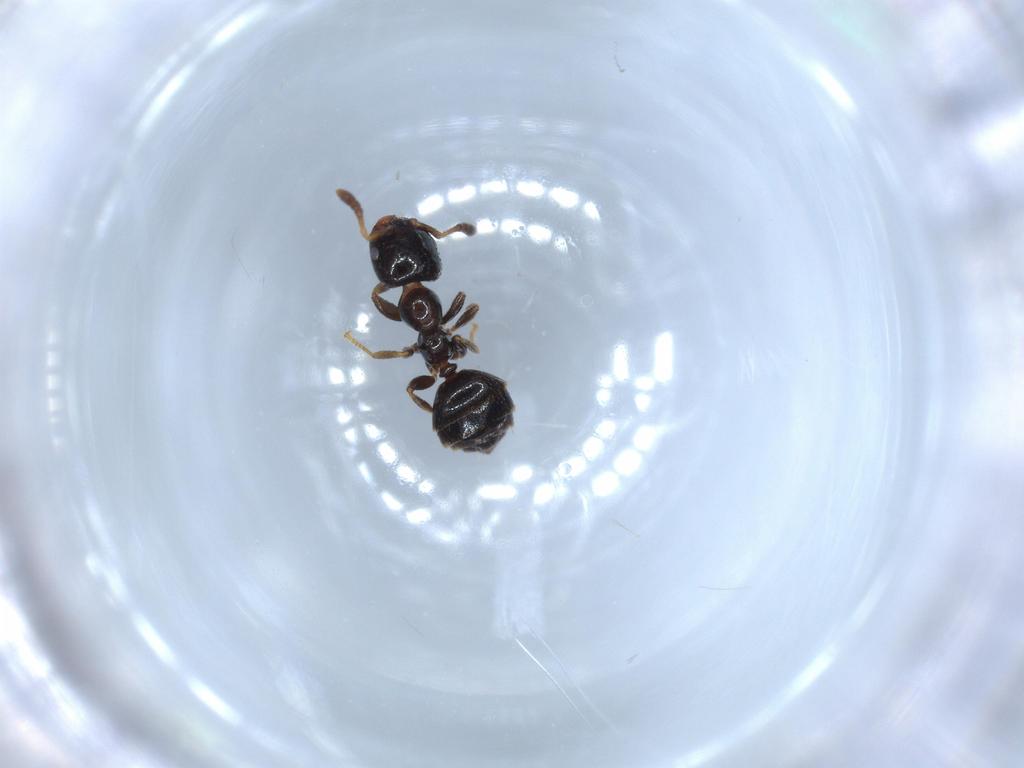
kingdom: Animalia
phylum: Arthropoda
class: Insecta
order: Hymenoptera
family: Formicidae
